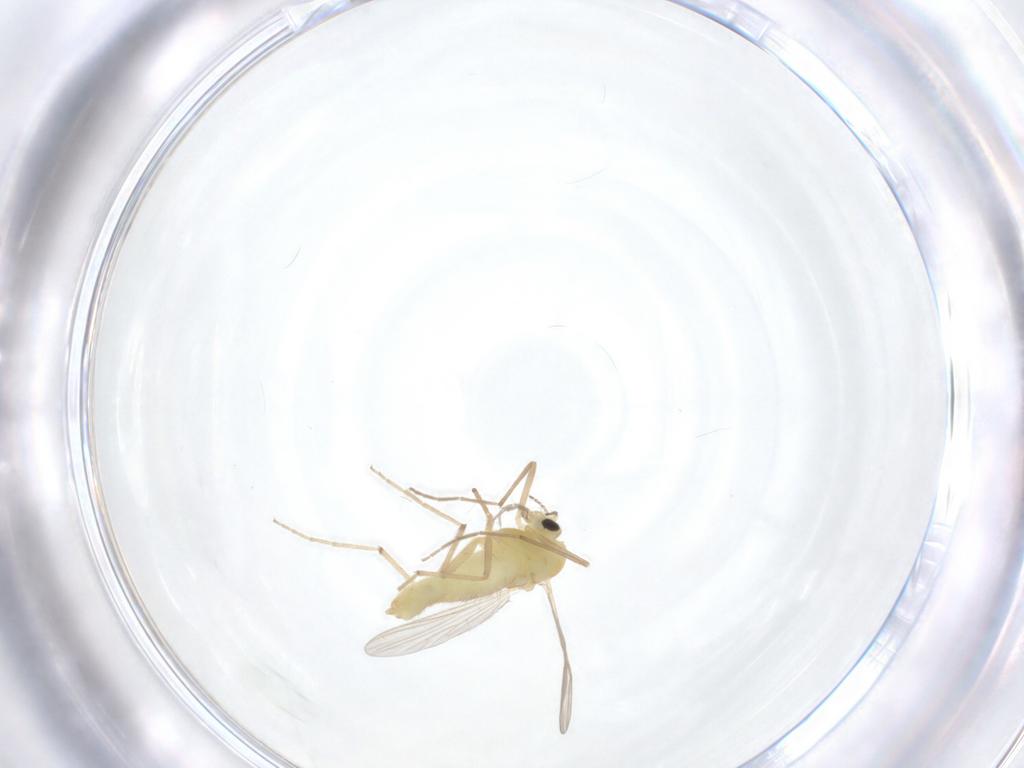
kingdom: Animalia
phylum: Arthropoda
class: Insecta
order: Diptera
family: Chironomidae
